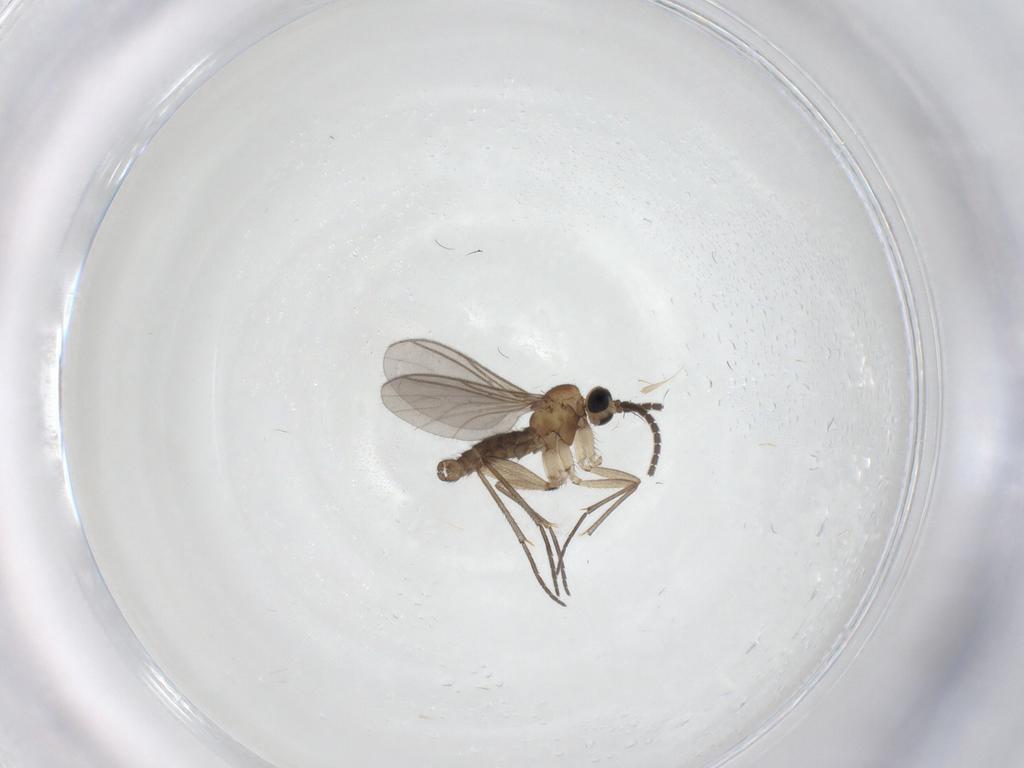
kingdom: Animalia
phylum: Arthropoda
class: Insecta
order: Diptera
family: Sciaridae
